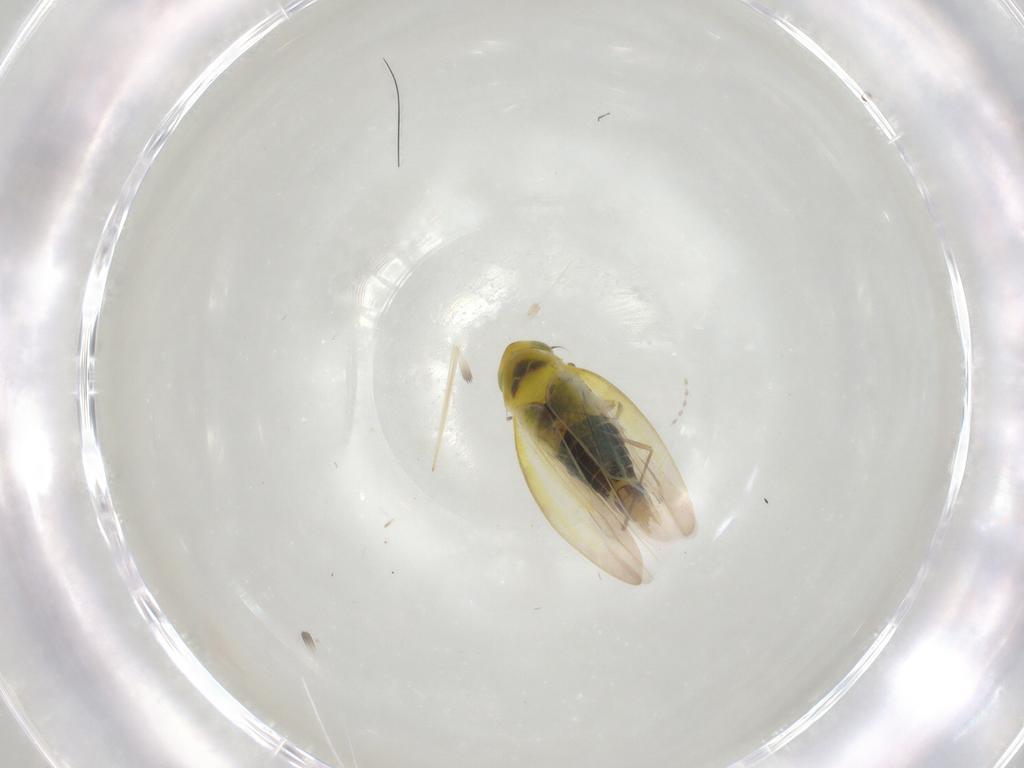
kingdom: Animalia
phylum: Arthropoda
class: Insecta
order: Hemiptera
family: Cicadellidae
